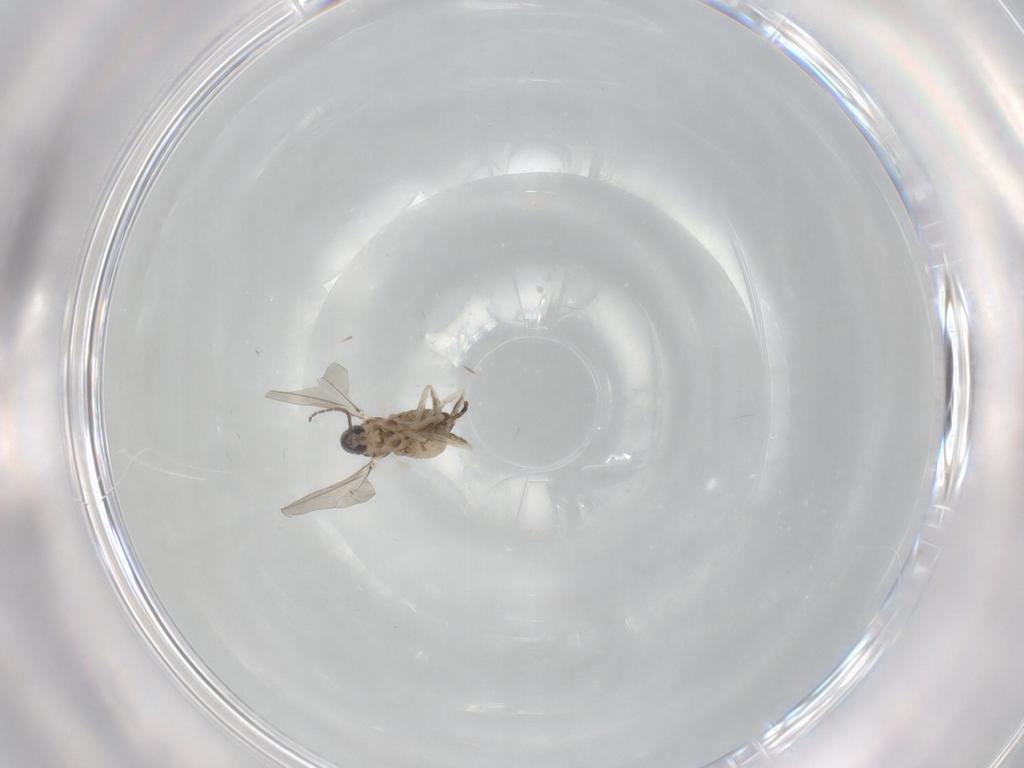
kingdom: Animalia
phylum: Arthropoda
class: Insecta
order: Diptera
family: Cecidomyiidae
